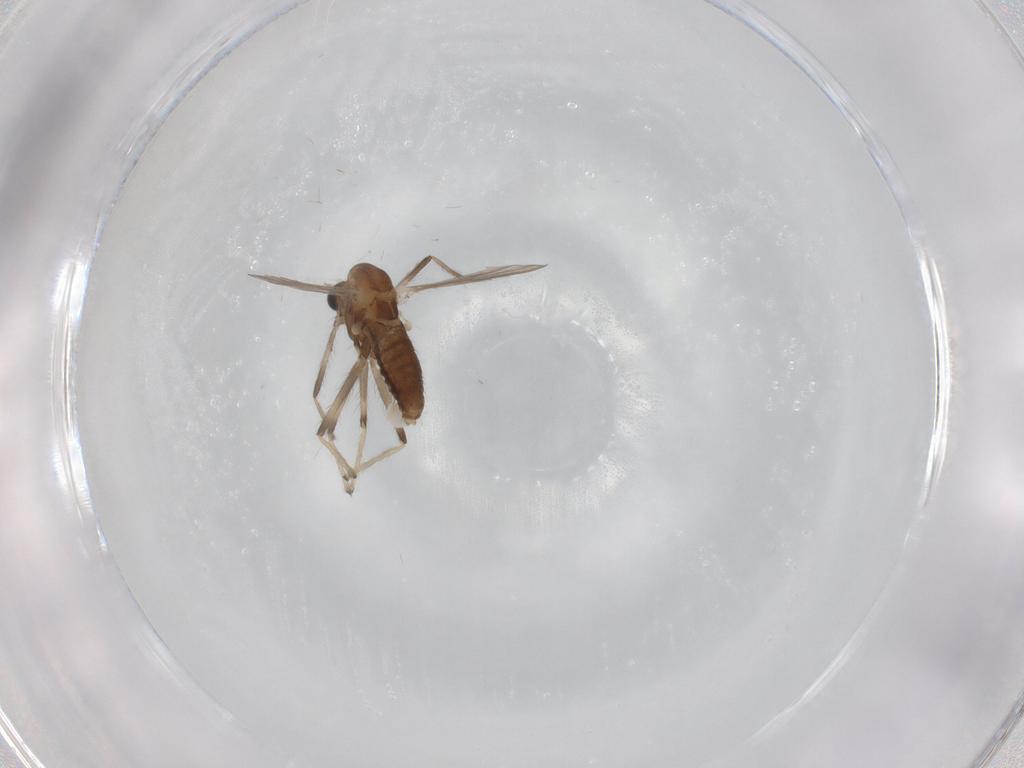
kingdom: Animalia
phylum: Arthropoda
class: Insecta
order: Diptera
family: Chironomidae
